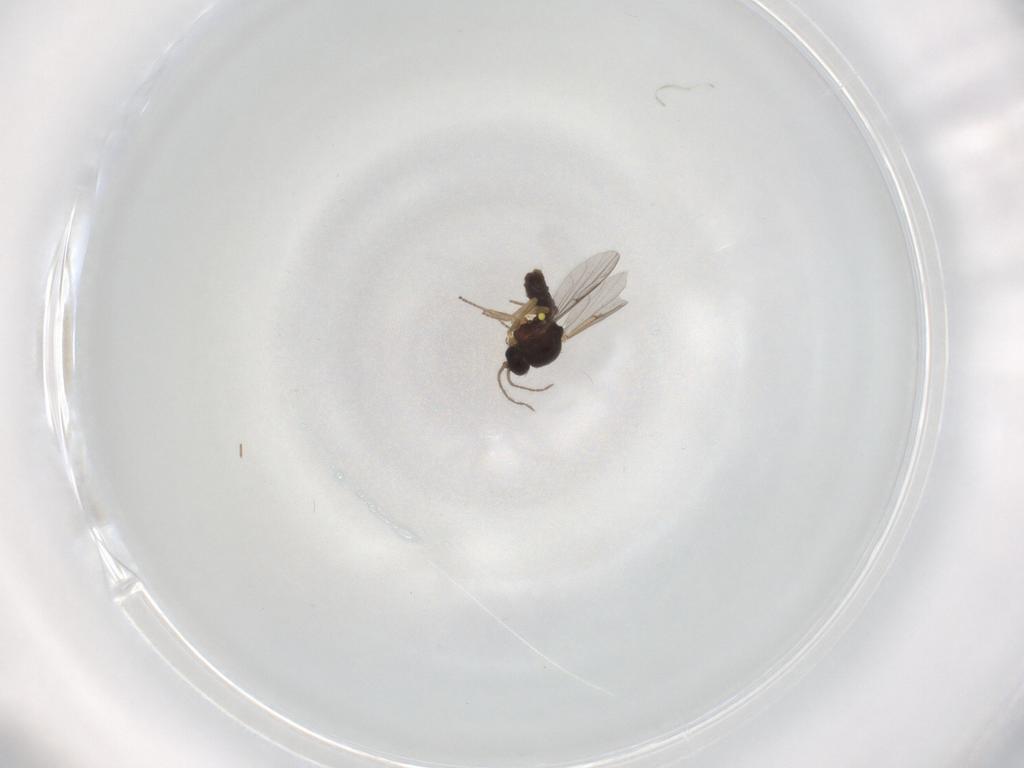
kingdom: Animalia
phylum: Arthropoda
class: Insecta
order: Diptera
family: Ceratopogonidae
